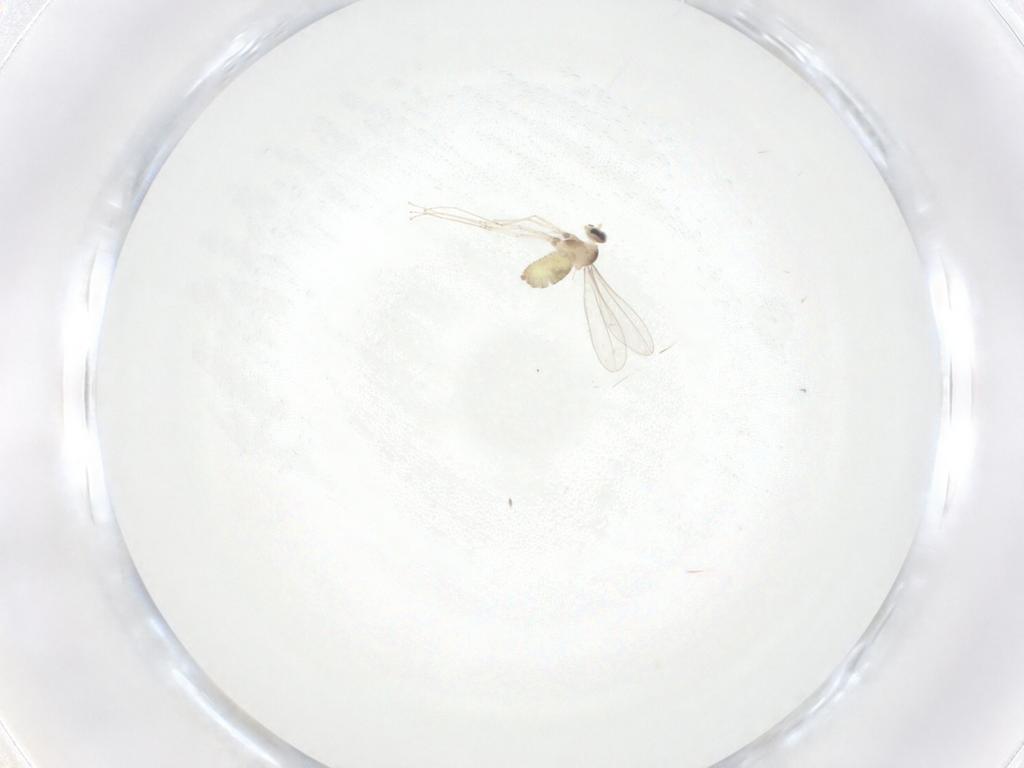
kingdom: Animalia
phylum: Arthropoda
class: Insecta
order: Diptera
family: Cecidomyiidae
